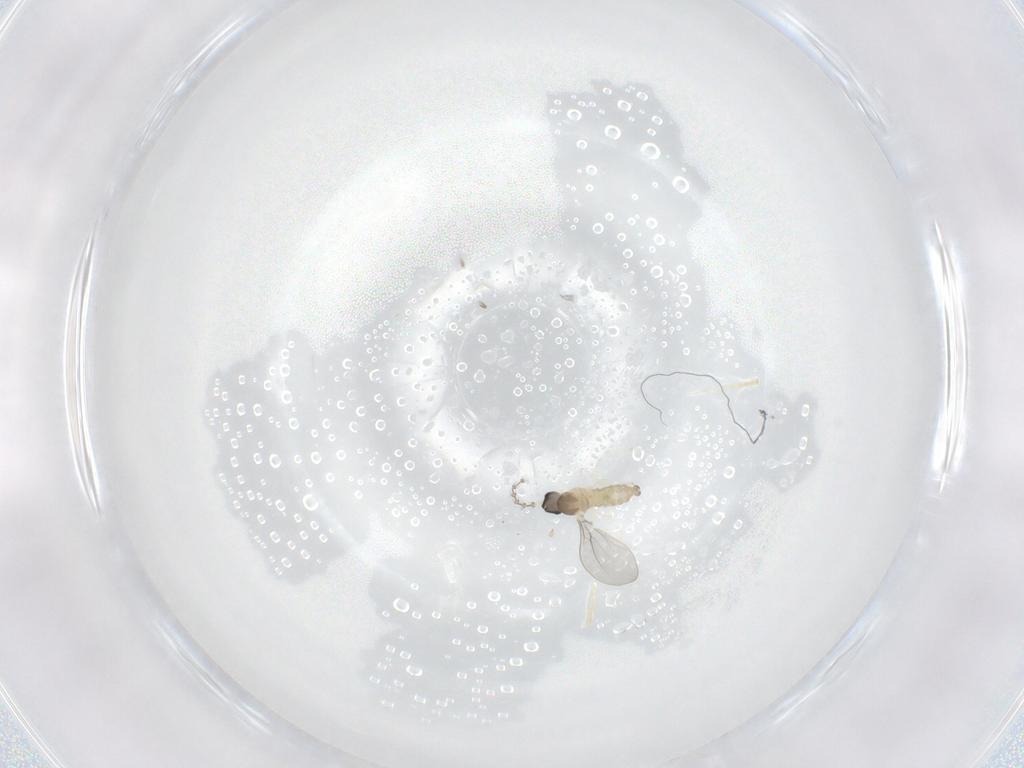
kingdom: Animalia
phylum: Arthropoda
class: Insecta
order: Diptera
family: Cecidomyiidae
